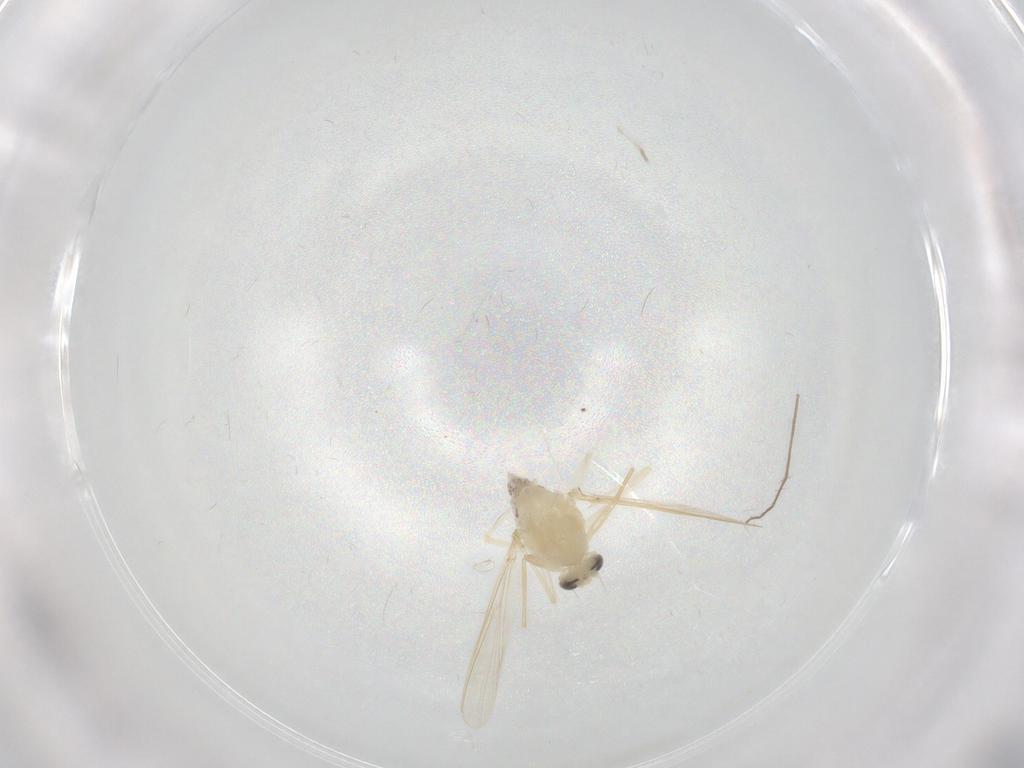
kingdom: Animalia
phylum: Arthropoda
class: Insecta
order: Diptera
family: Chironomidae
